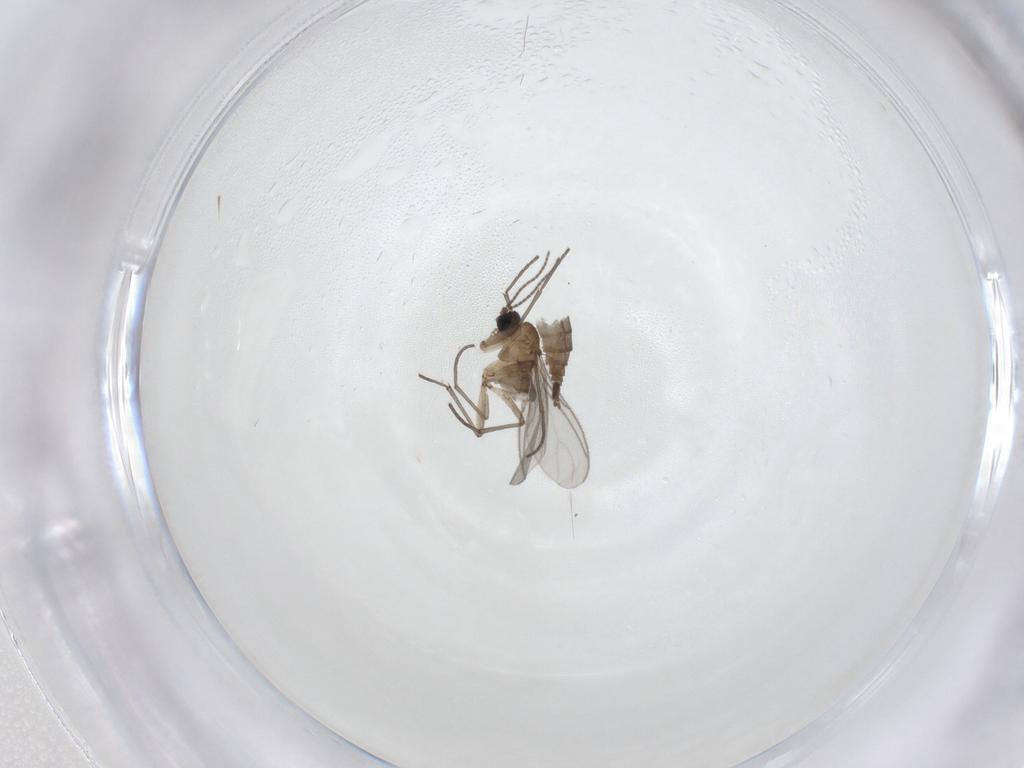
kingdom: Animalia
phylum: Arthropoda
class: Insecta
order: Diptera
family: Sciaridae
